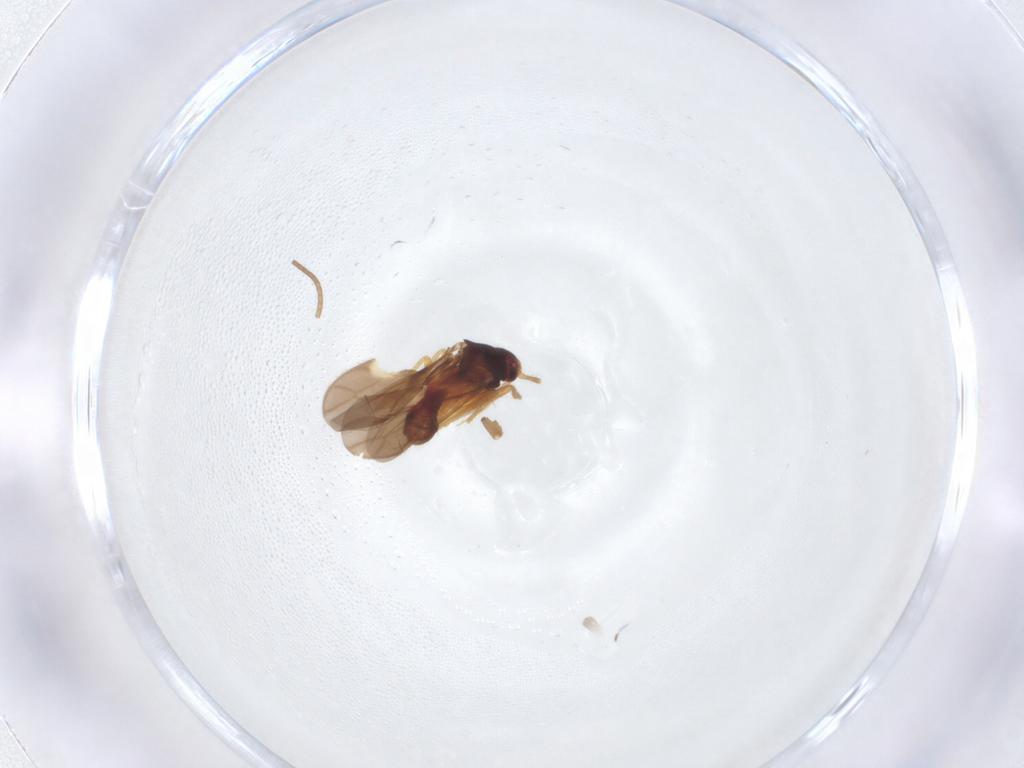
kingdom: Animalia
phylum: Arthropoda
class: Insecta
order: Hemiptera
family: Ceratocombidae
